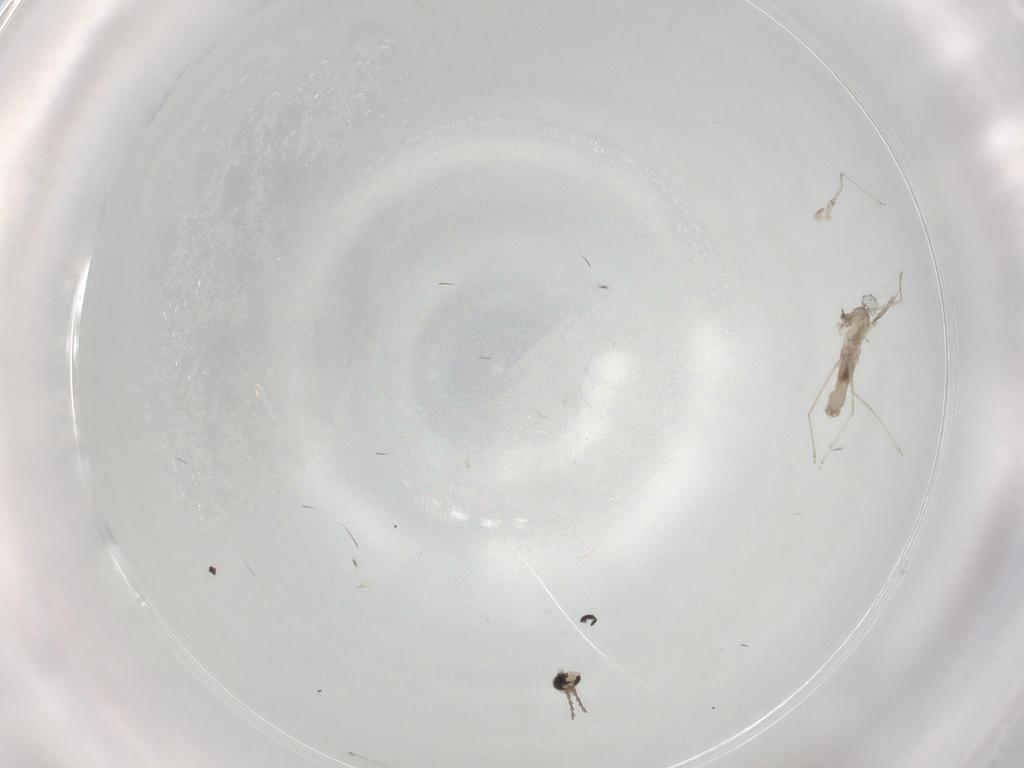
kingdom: Animalia
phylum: Arthropoda
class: Insecta
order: Diptera
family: Cecidomyiidae
